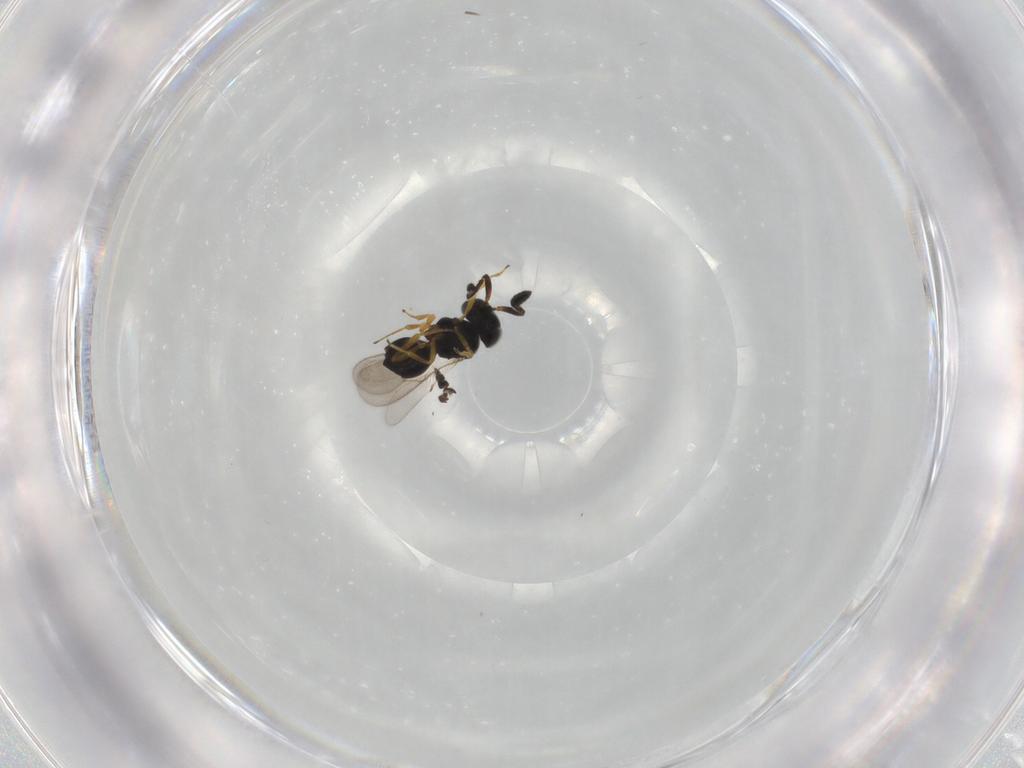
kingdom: Animalia
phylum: Arthropoda
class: Insecta
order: Hymenoptera
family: Scelionidae
